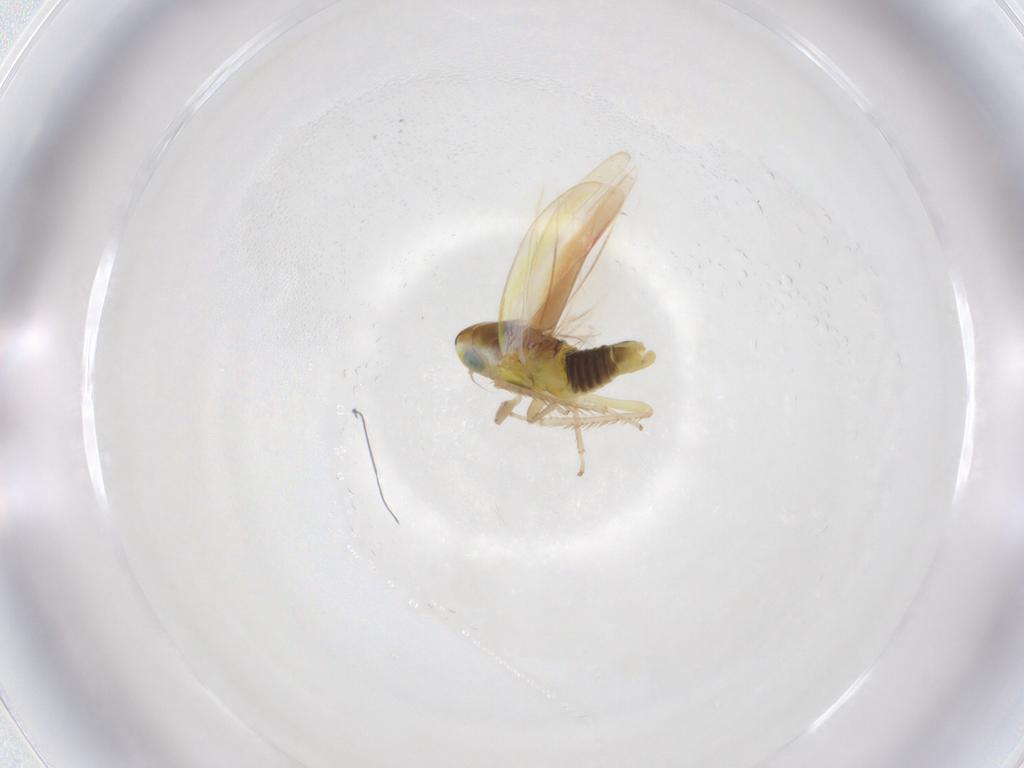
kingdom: Animalia
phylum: Arthropoda
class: Insecta
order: Hemiptera
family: Cicadellidae
